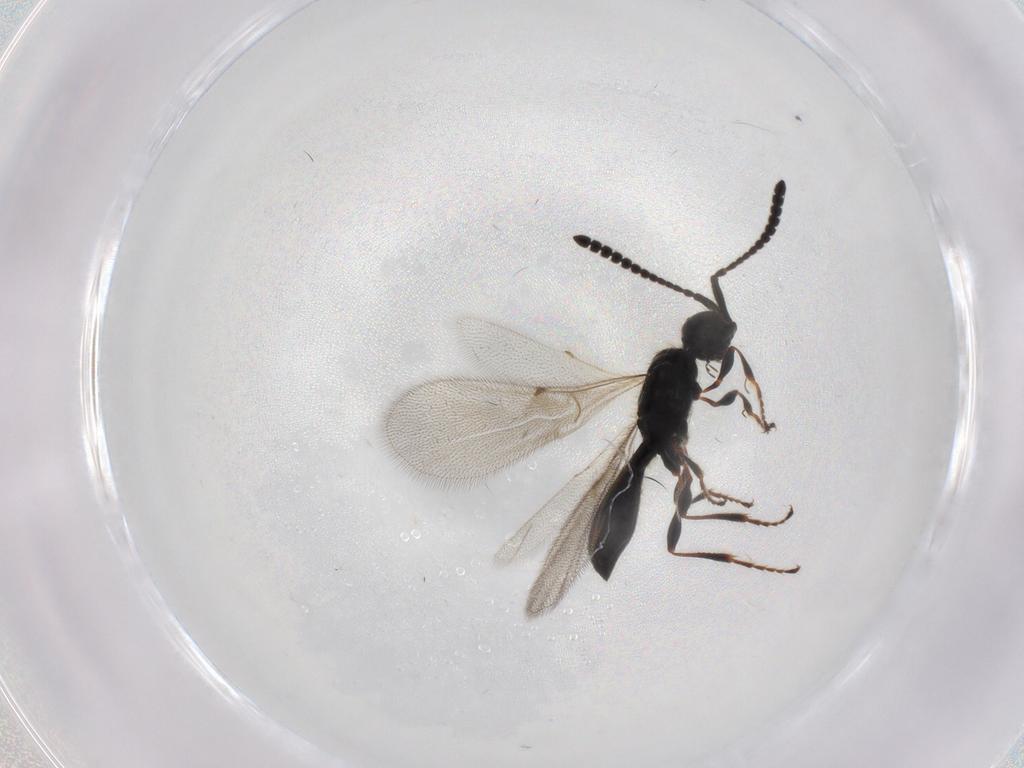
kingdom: Animalia
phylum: Arthropoda
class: Insecta
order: Hymenoptera
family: Diapriidae
